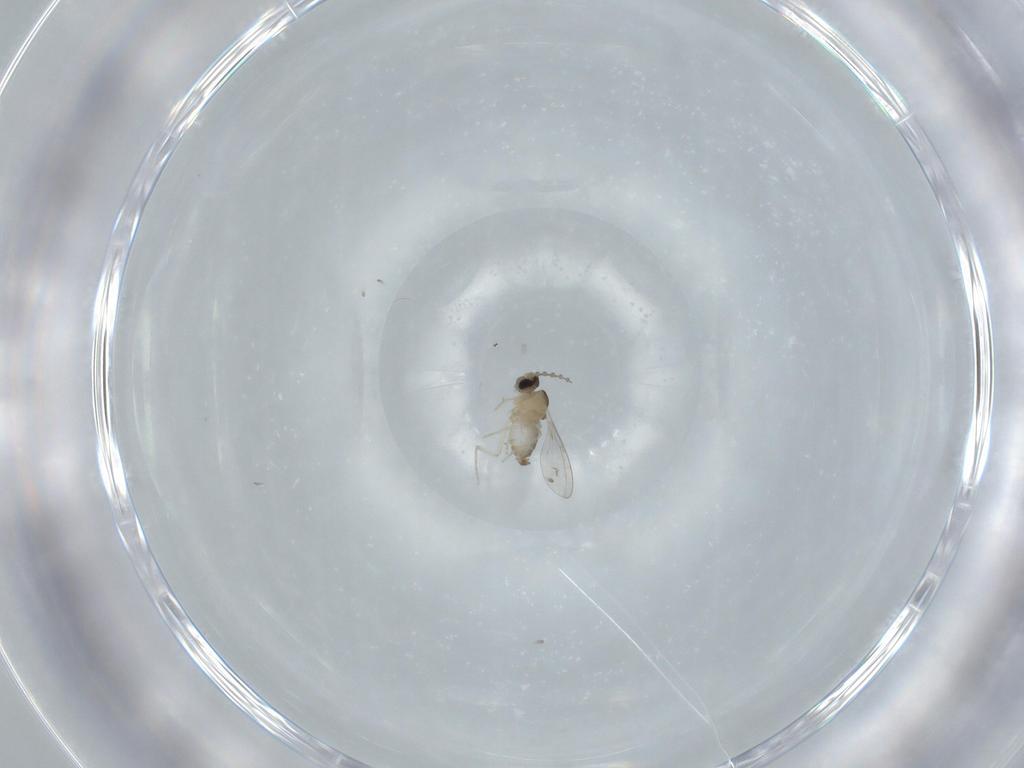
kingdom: Animalia
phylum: Arthropoda
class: Insecta
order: Diptera
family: Cecidomyiidae
